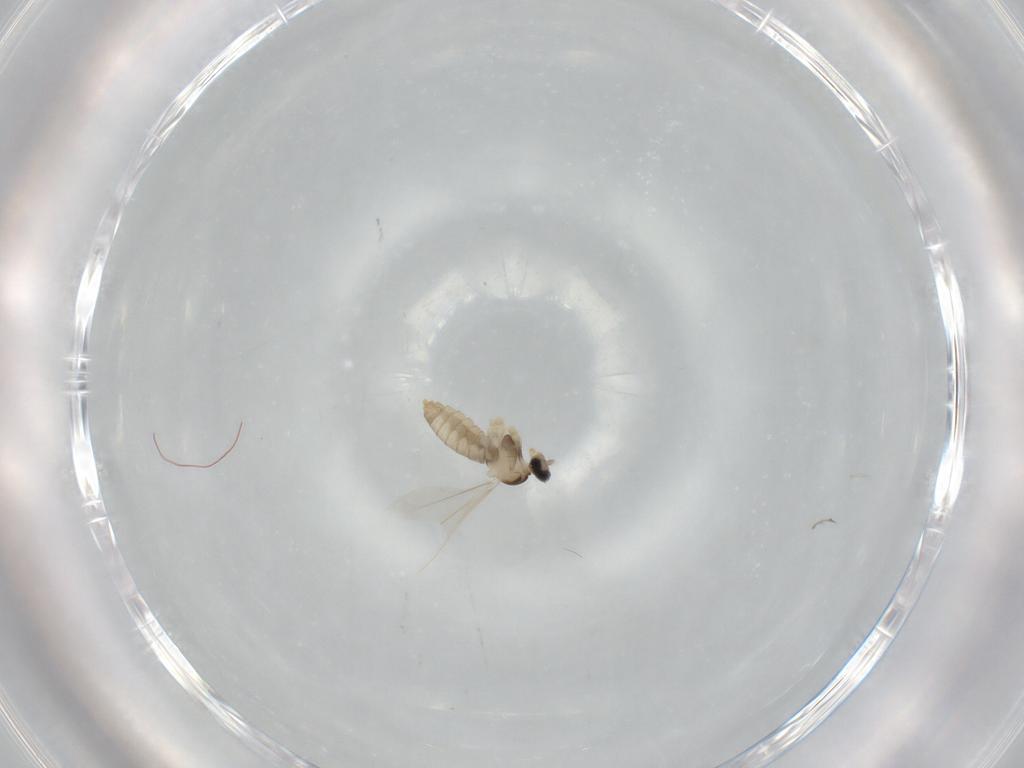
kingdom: Animalia
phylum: Arthropoda
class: Insecta
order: Diptera
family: Cecidomyiidae
